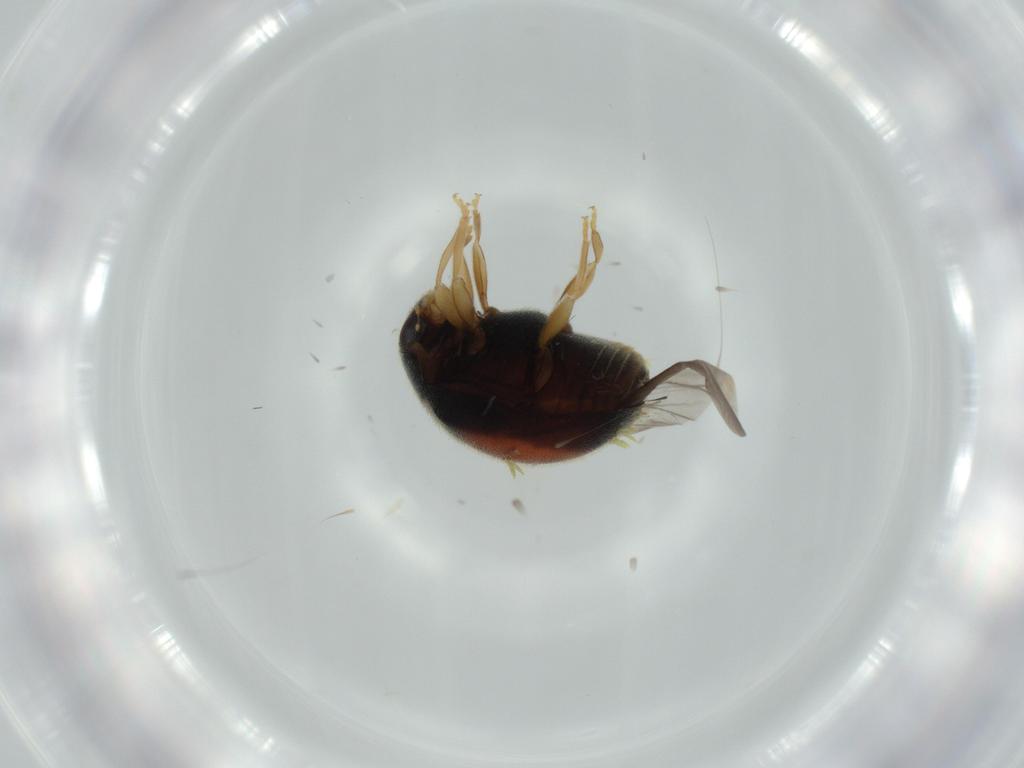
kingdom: Animalia
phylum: Arthropoda
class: Insecta
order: Coleoptera
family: Coccinellidae
